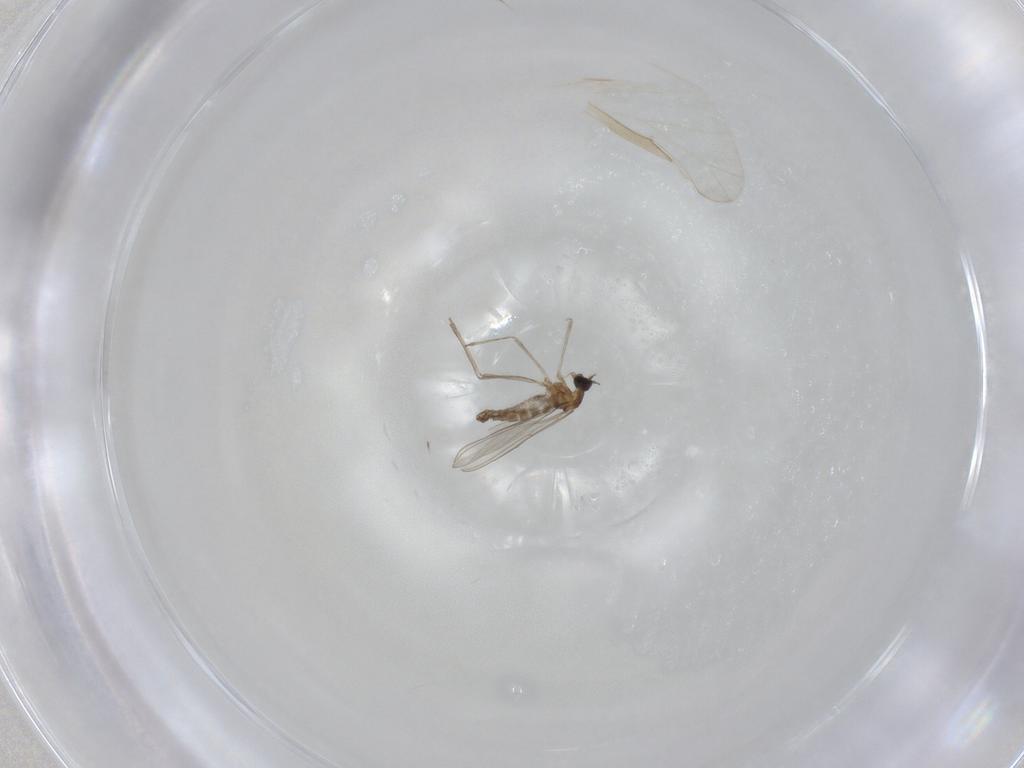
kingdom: Animalia
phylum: Arthropoda
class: Insecta
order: Diptera
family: Cecidomyiidae
